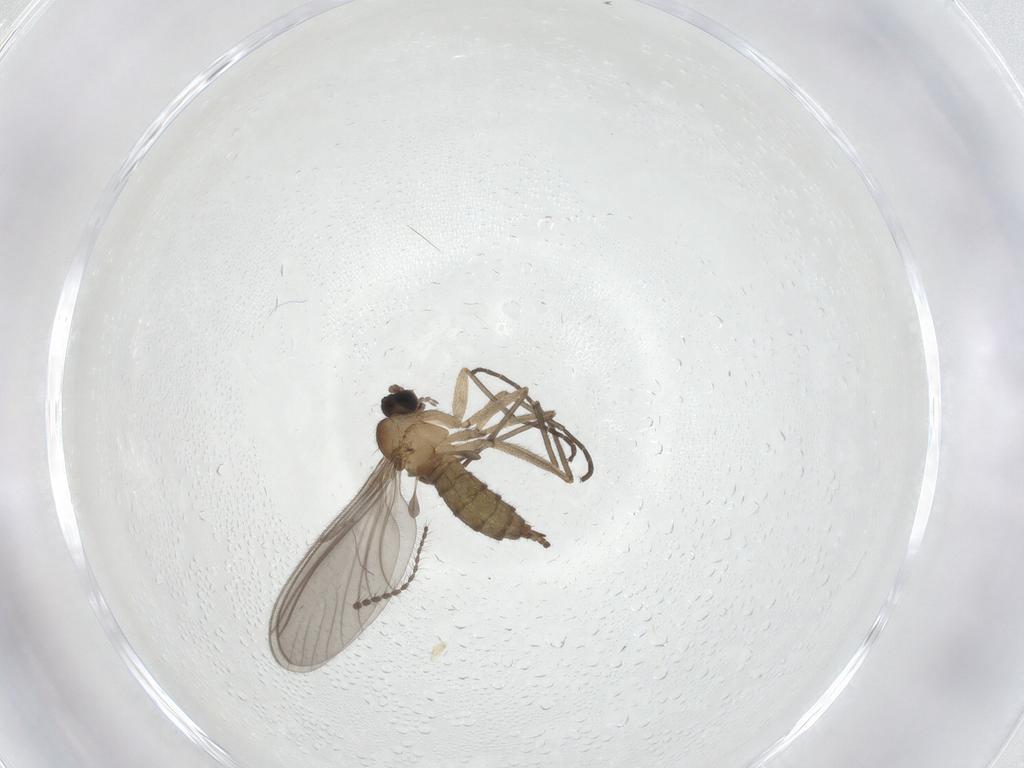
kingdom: Animalia
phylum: Arthropoda
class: Insecta
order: Diptera
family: Sciaridae
